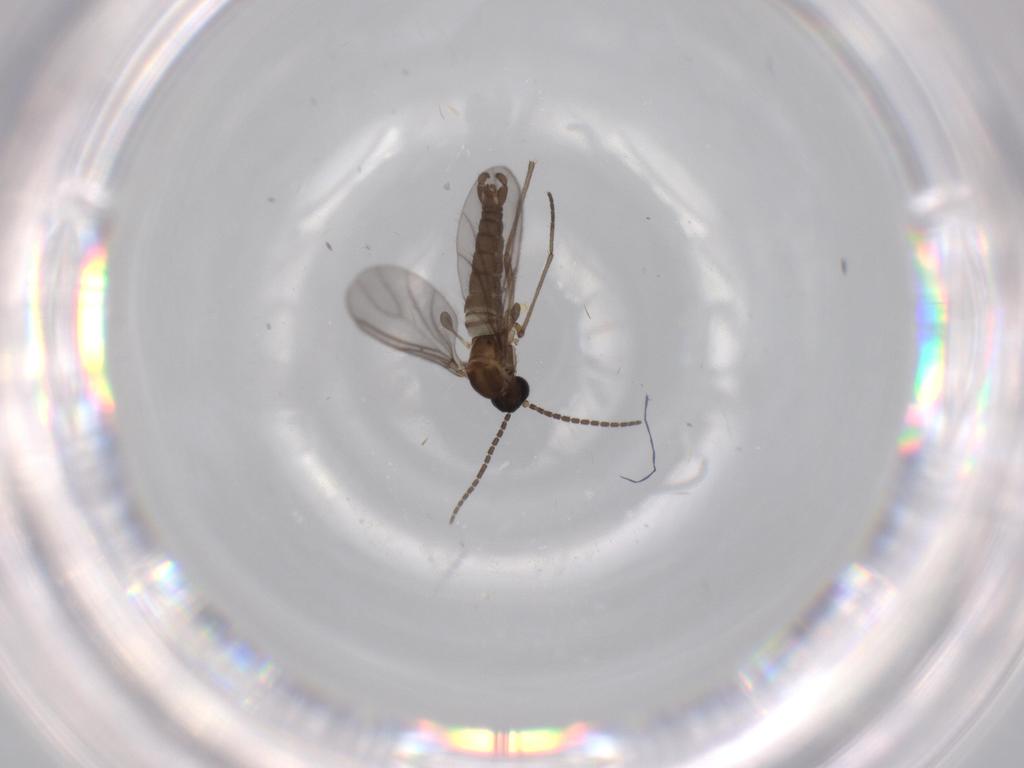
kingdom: Animalia
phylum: Arthropoda
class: Insecta
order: Diptera
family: Sciaridae
